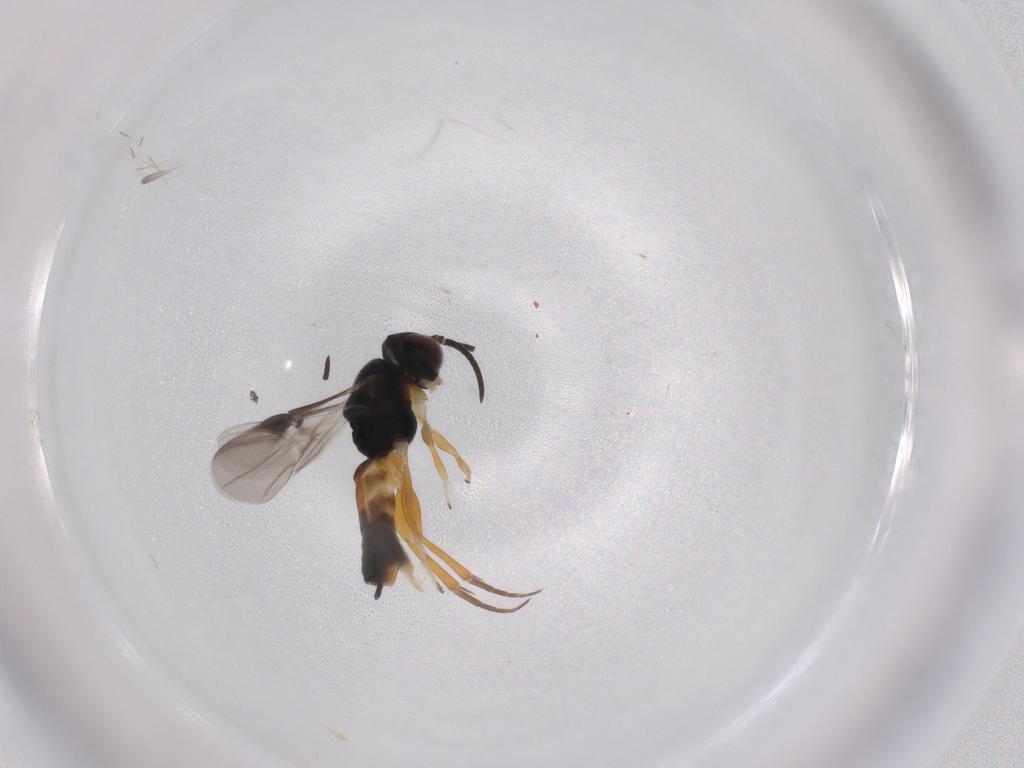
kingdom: Animalia
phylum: Arthropoda
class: Insecta
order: Hymenoptera
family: Braconidae
